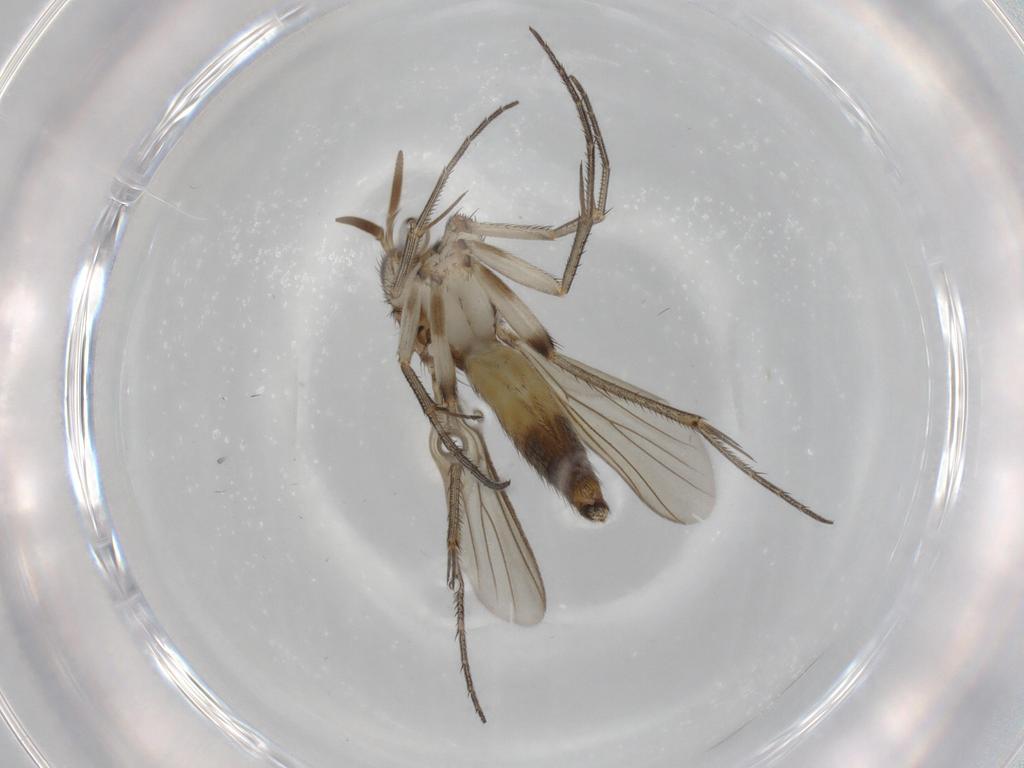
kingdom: Animalia
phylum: Arthropoda
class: Insecta
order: Diptera
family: Mycetophilidae
